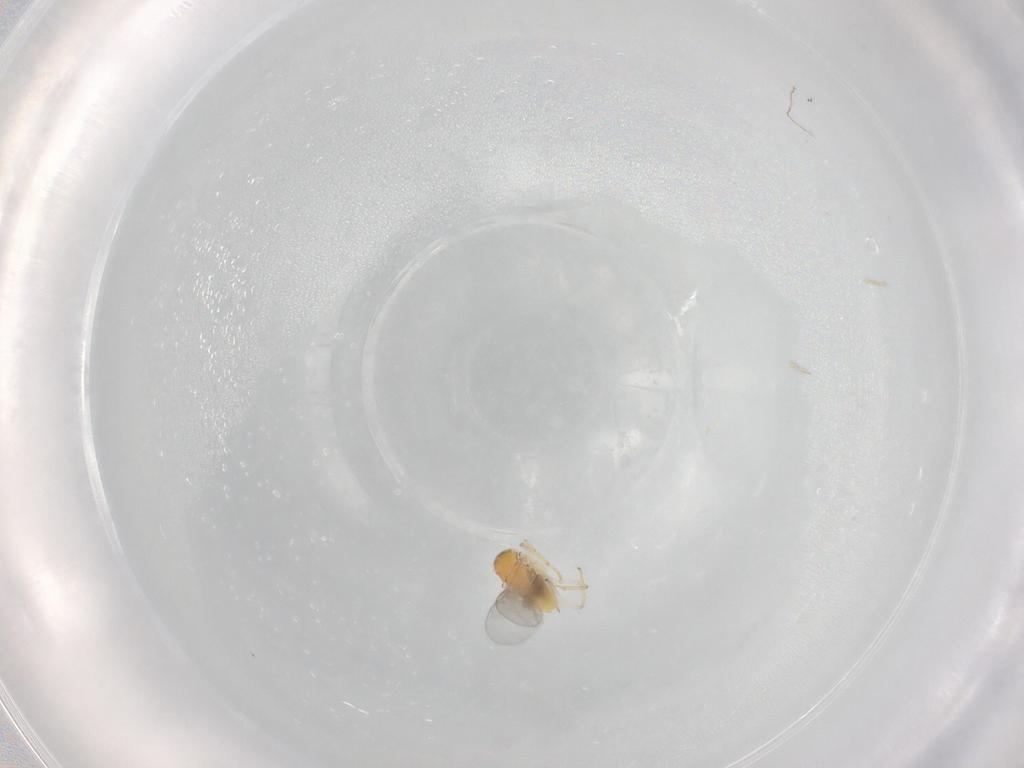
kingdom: Animalia
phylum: Arthropoda
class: Insecta
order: Hymenoptera
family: Encyrtidae
